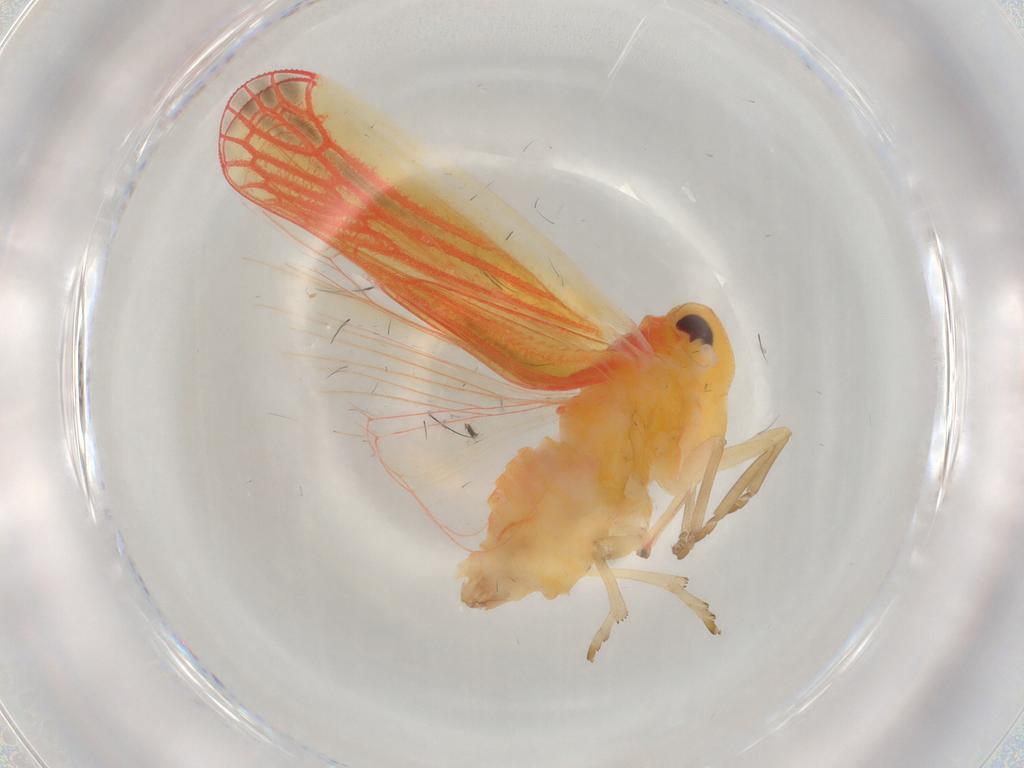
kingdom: Animalia
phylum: Arthropoda
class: Insecta
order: Hemiptera
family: Derbidae
